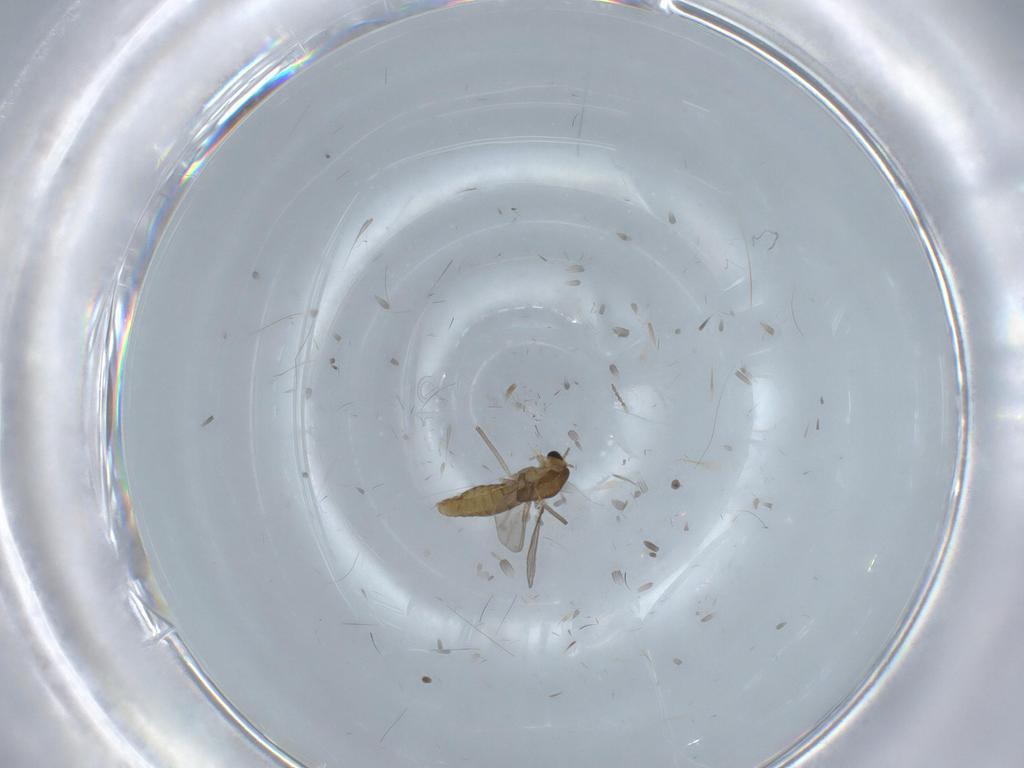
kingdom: Animalia
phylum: Arthropoda
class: Insecta
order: Diptera
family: Chironomidae
